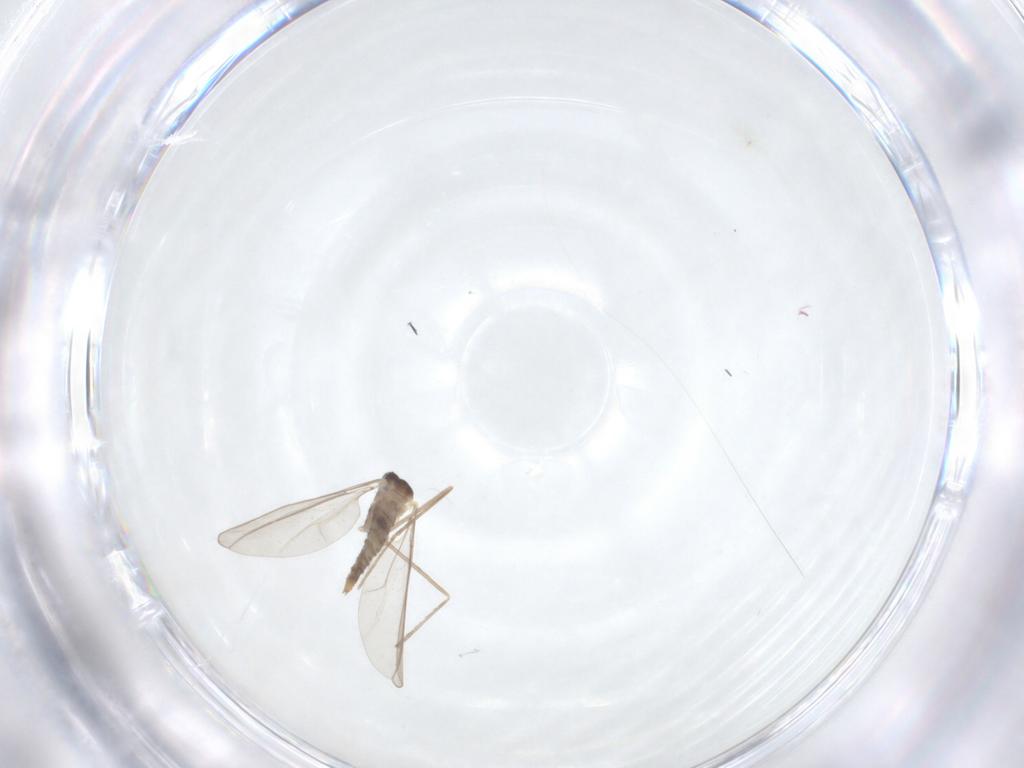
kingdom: Animalia
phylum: Arthropoda
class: Insecta
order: Diptera
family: Cecidomyiidae
